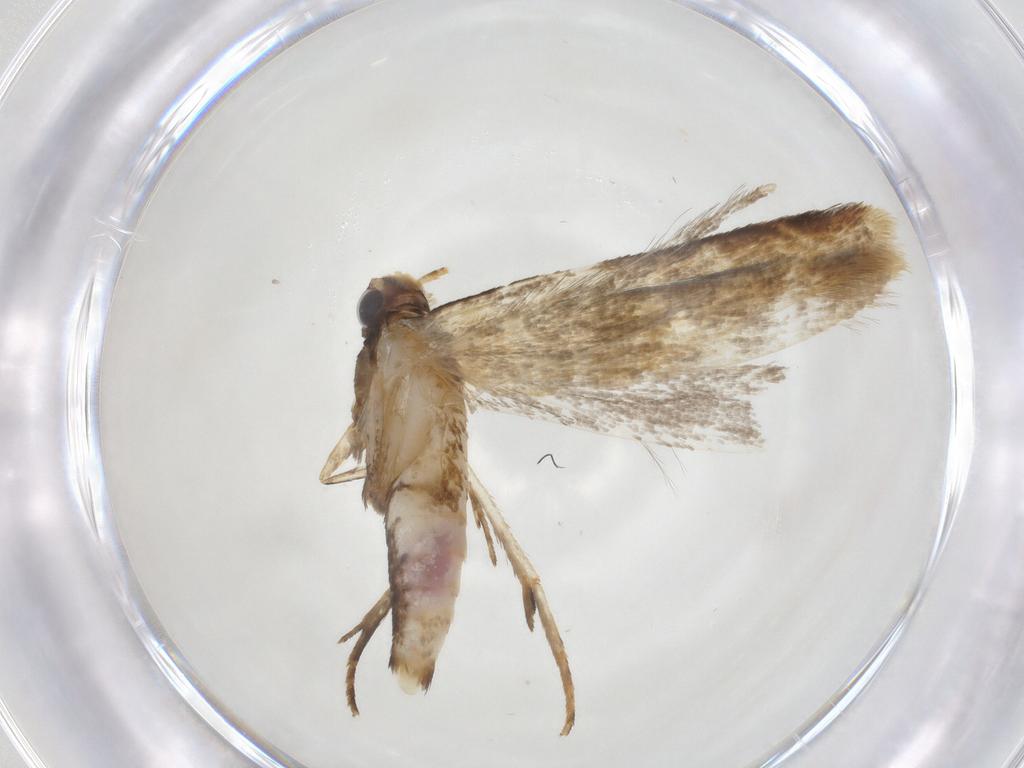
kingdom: Animalia
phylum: Arthropoda
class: Insecta
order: Lepidoptera
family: Gelechiidae
